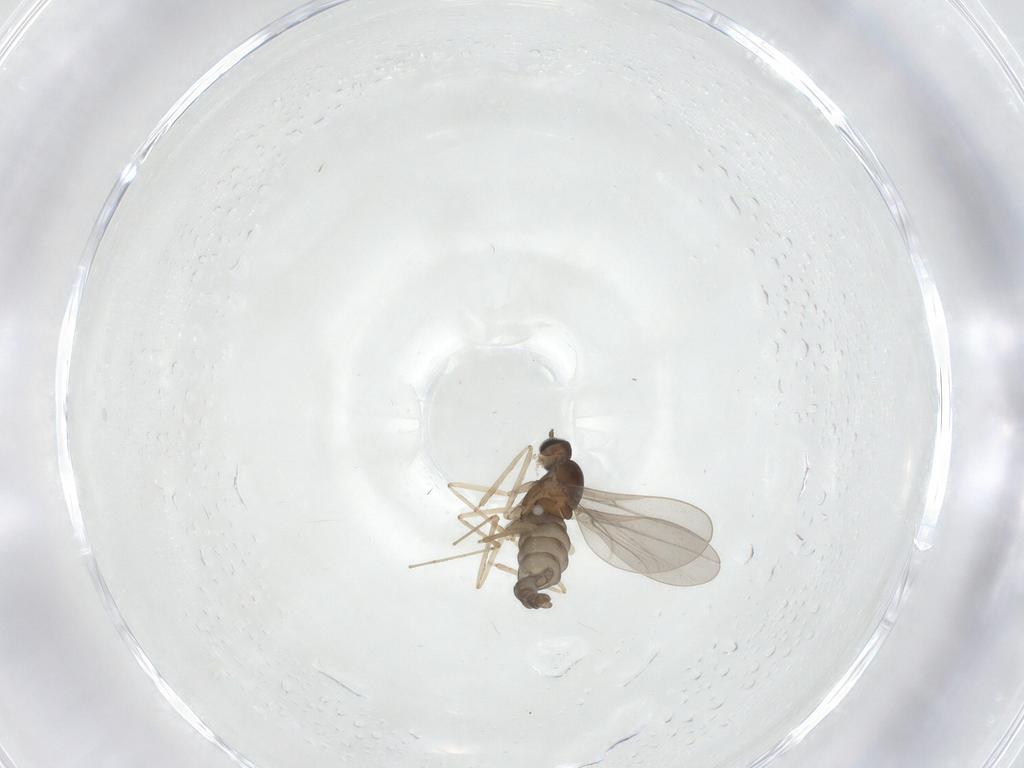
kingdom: Animalia
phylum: Arthropoda
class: Insecta
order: Diptera
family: Cecidomyiidae
